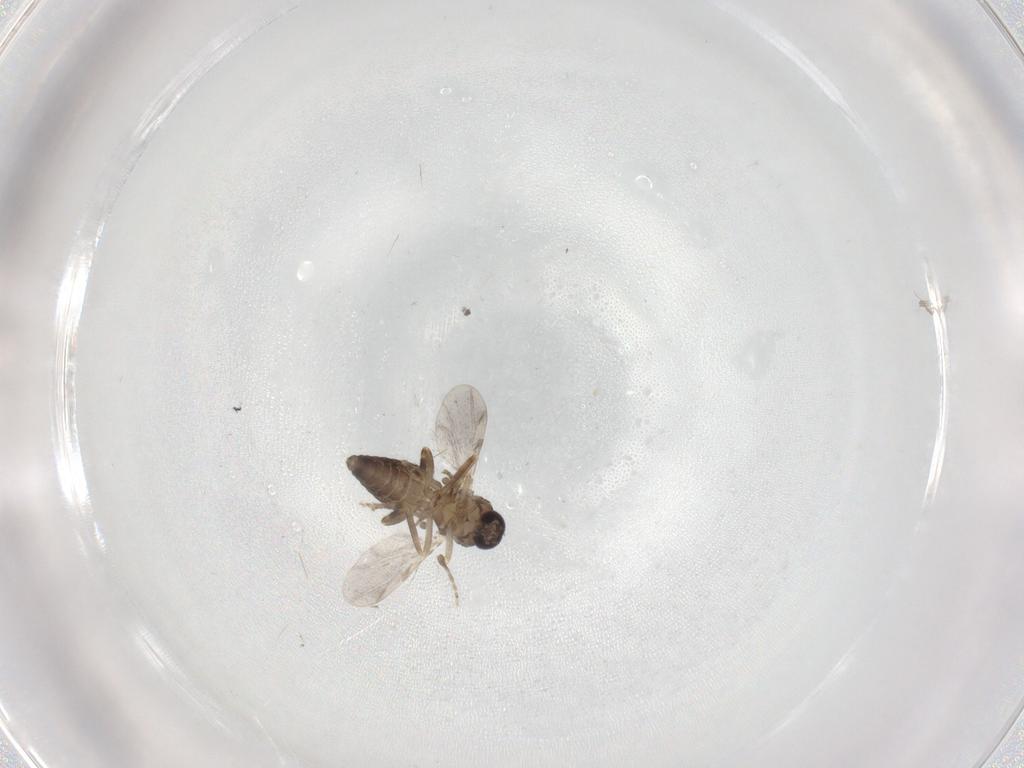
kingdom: Animalia
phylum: Arthropoda
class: Insecta
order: Diptera
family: Ceratopogonidae
